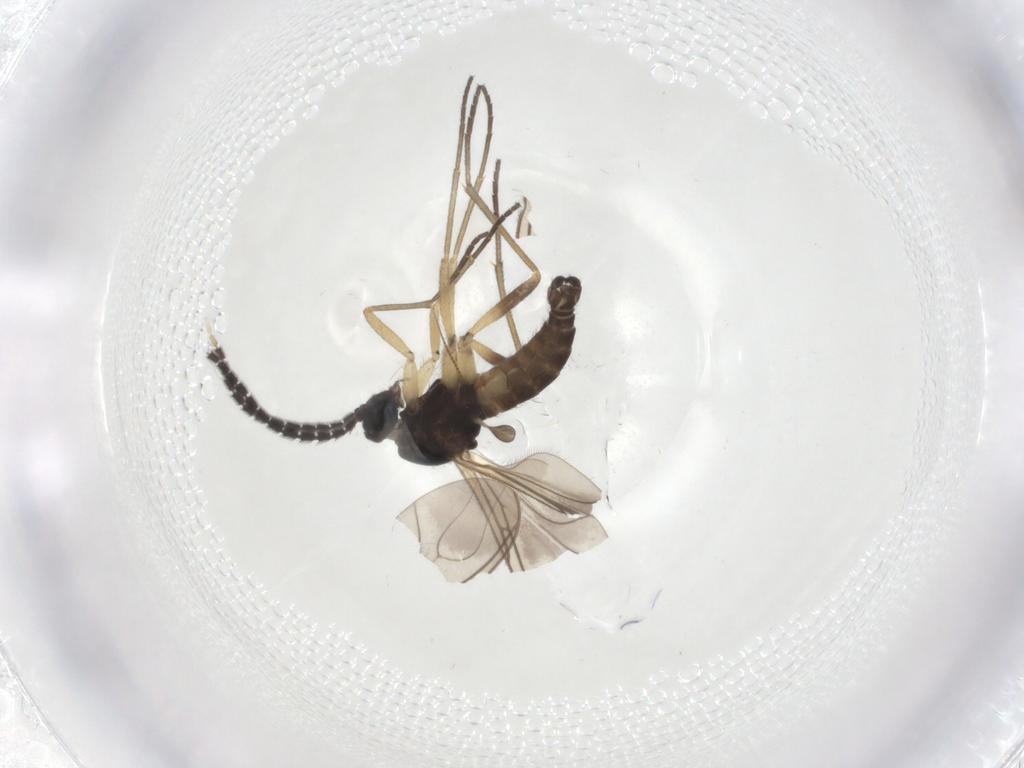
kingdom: Animalia
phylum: Arthropoda
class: Insecta
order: Diptera
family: Sciaridae
